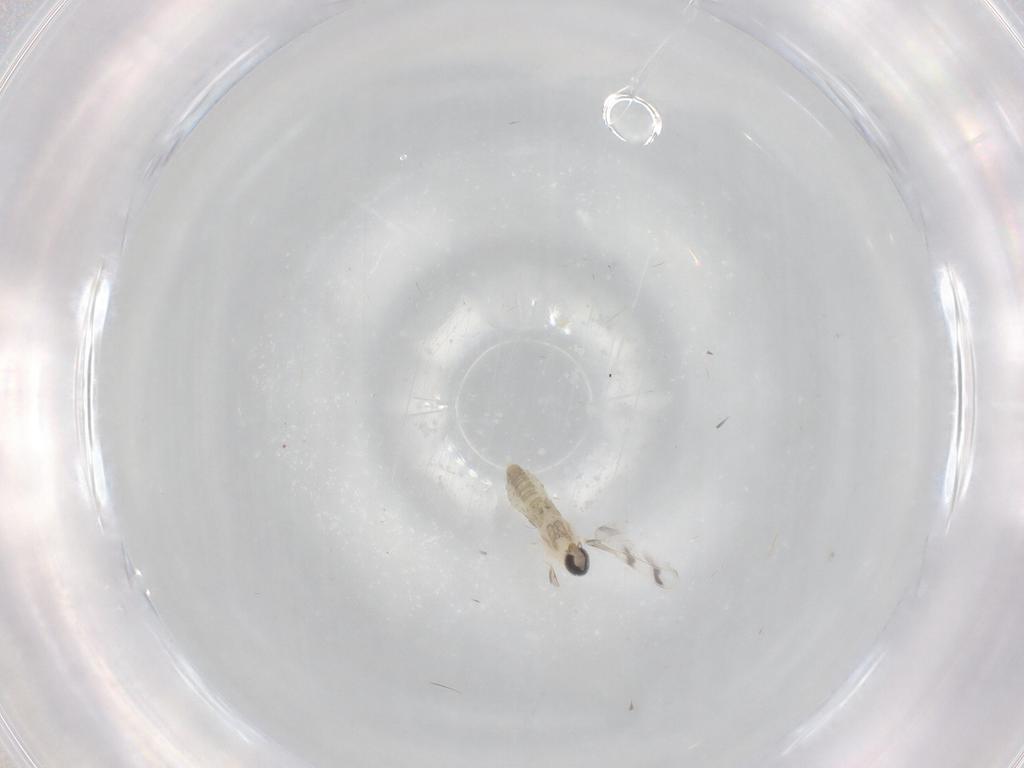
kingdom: Animalia
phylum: Arthropoda
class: Insecta
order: Diptera
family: Cecidomyiidae
